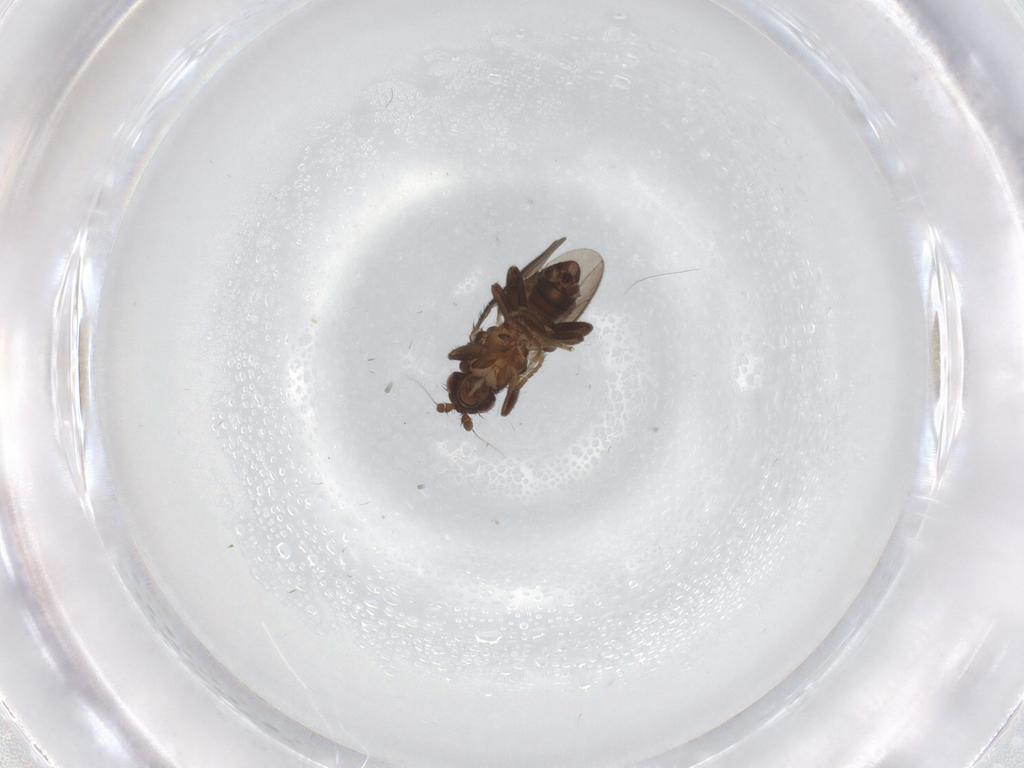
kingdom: Animalia
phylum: Arthropoda
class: Insecta
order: Diptera
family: Sphaeroceridae
